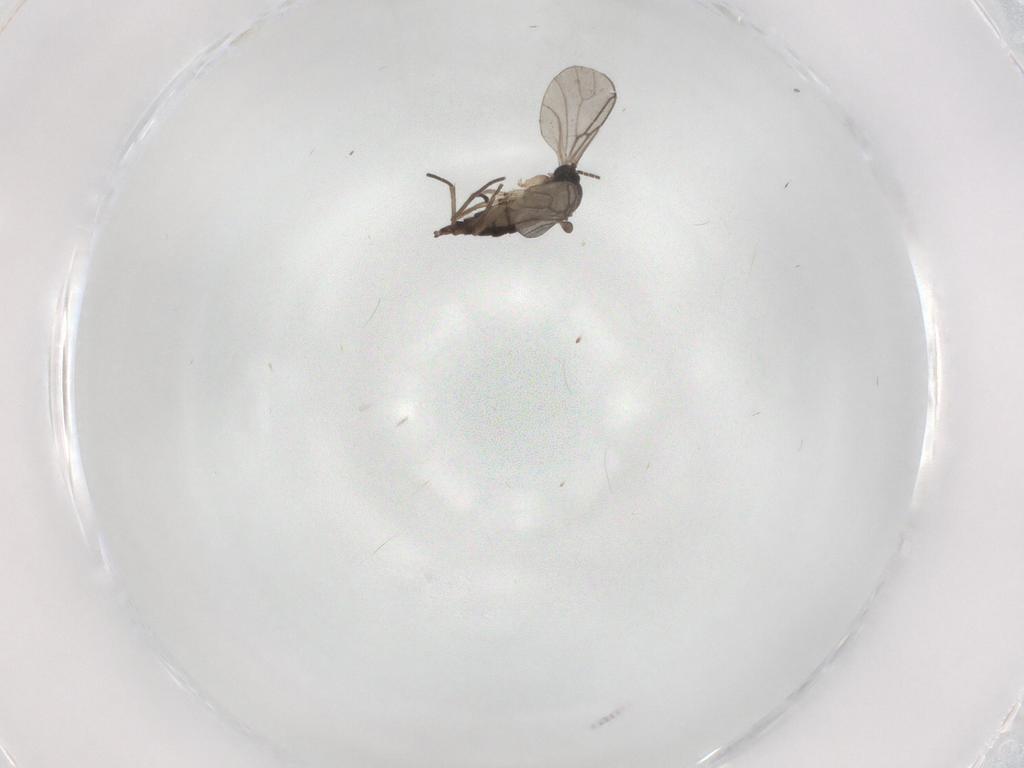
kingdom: Animalia
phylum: Arthropoda
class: Insecta
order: Diptera
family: Sciaridae
